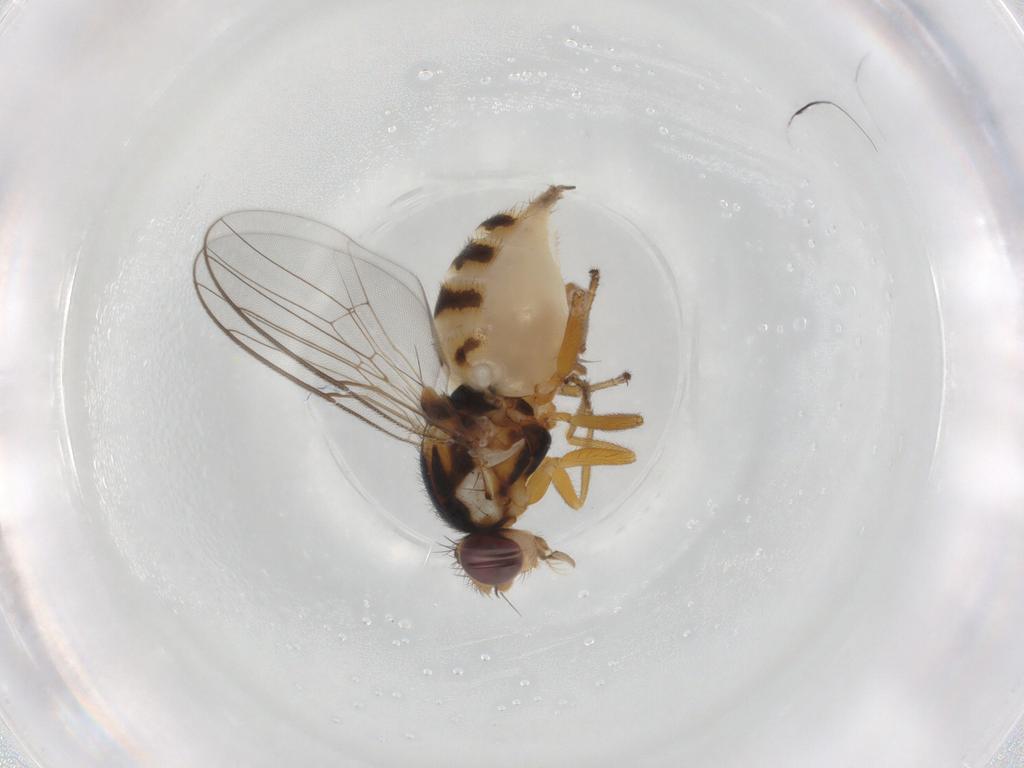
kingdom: Animalia
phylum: Arthropoda
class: Insecta
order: Diptera
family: Chloropidae
